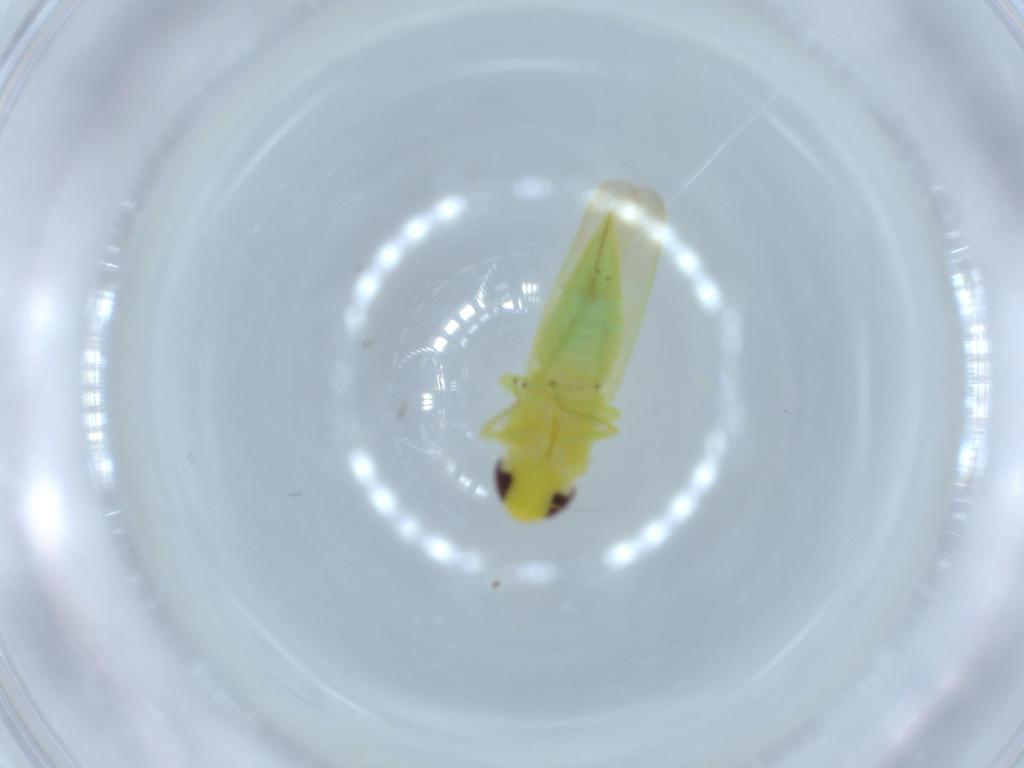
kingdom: Animalia
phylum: Arthropoda
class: Insecta
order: Hemiptera
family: Cicadellidae
